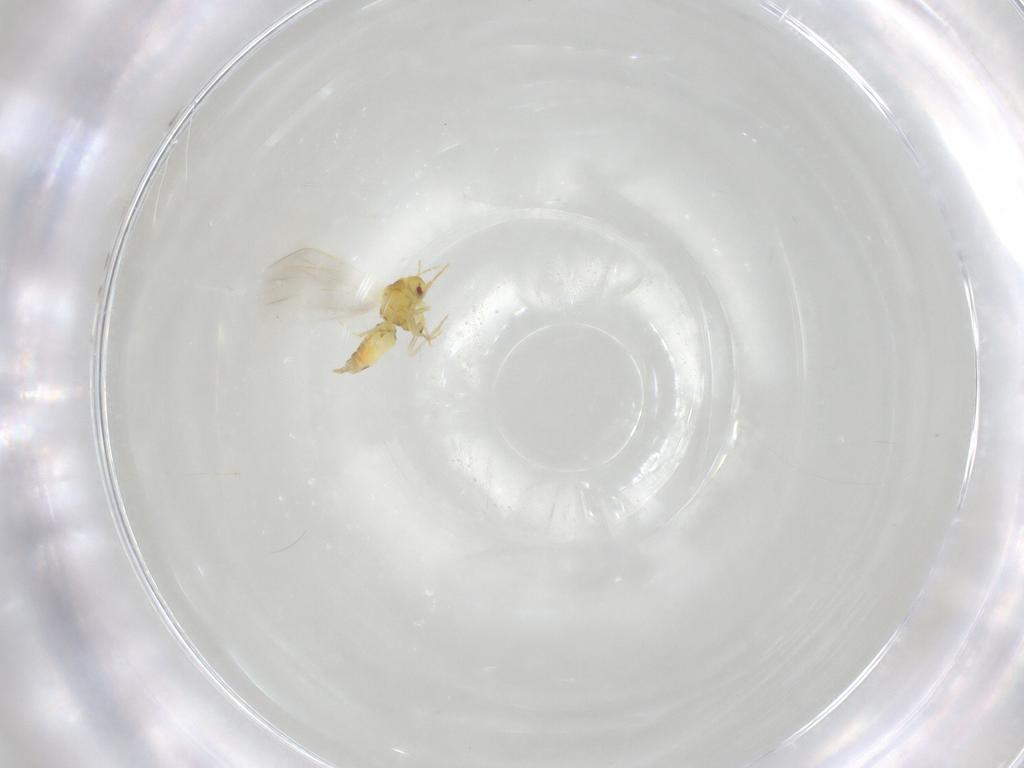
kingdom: Animalia
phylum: Arthropoda
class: Insecta
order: Hemiptera
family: Aleyrodidae
